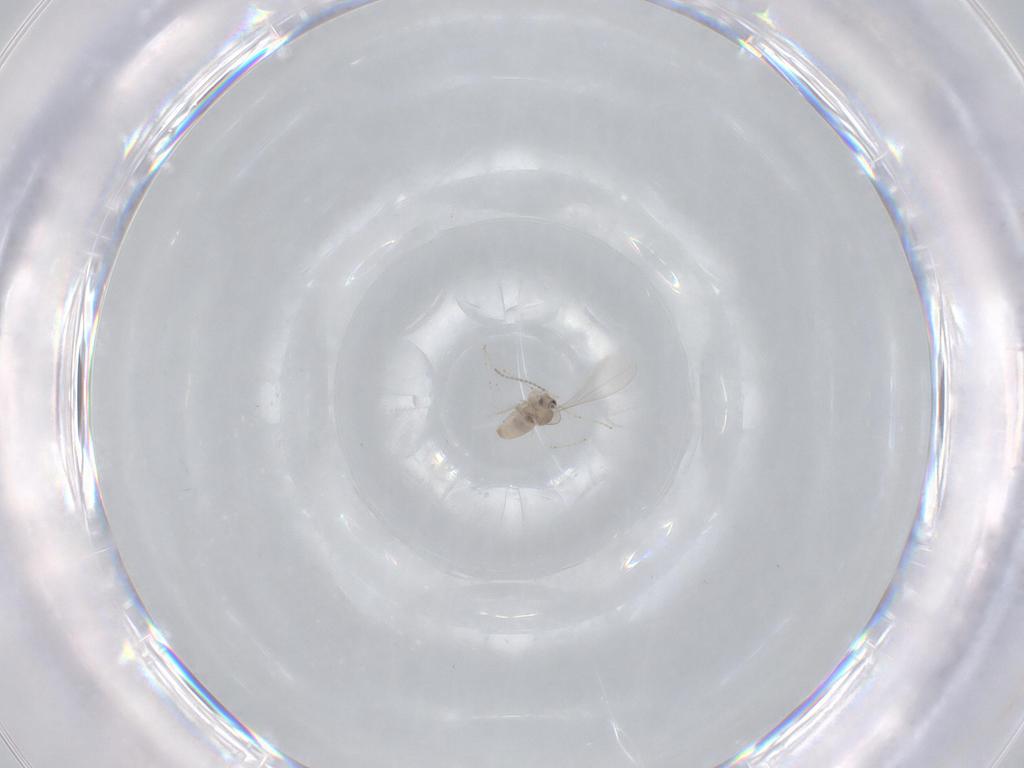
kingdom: Animalia
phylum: Arthropoda
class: Insecta
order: Diptera
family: Cecidomyiidae
